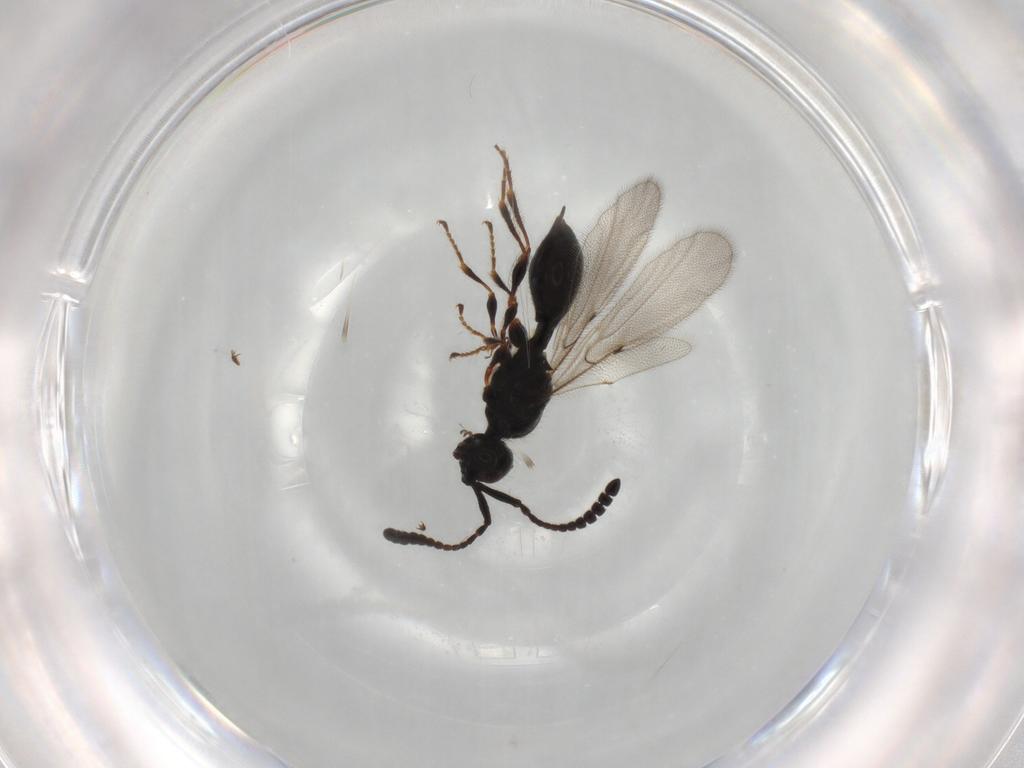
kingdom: Animalia
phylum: Arthropoda
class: Insecta
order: Hymenoptera
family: Diapriidae
